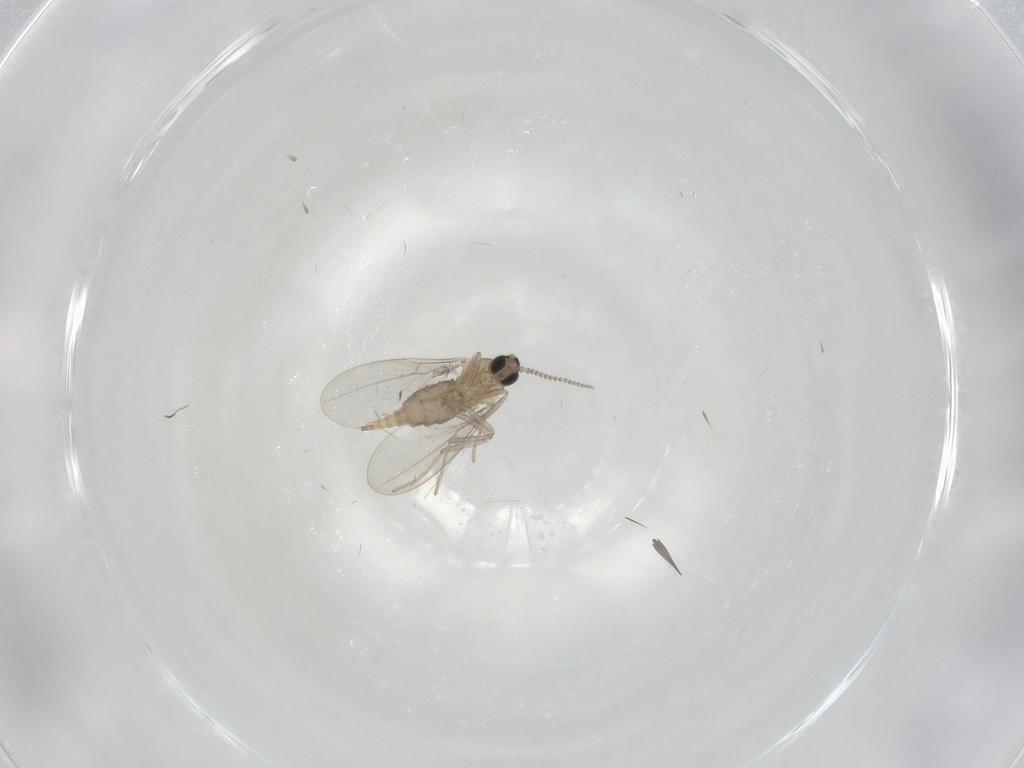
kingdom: Animalia
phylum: Arthropoda
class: Insecta
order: Diptera
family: Cecidomyiidae
